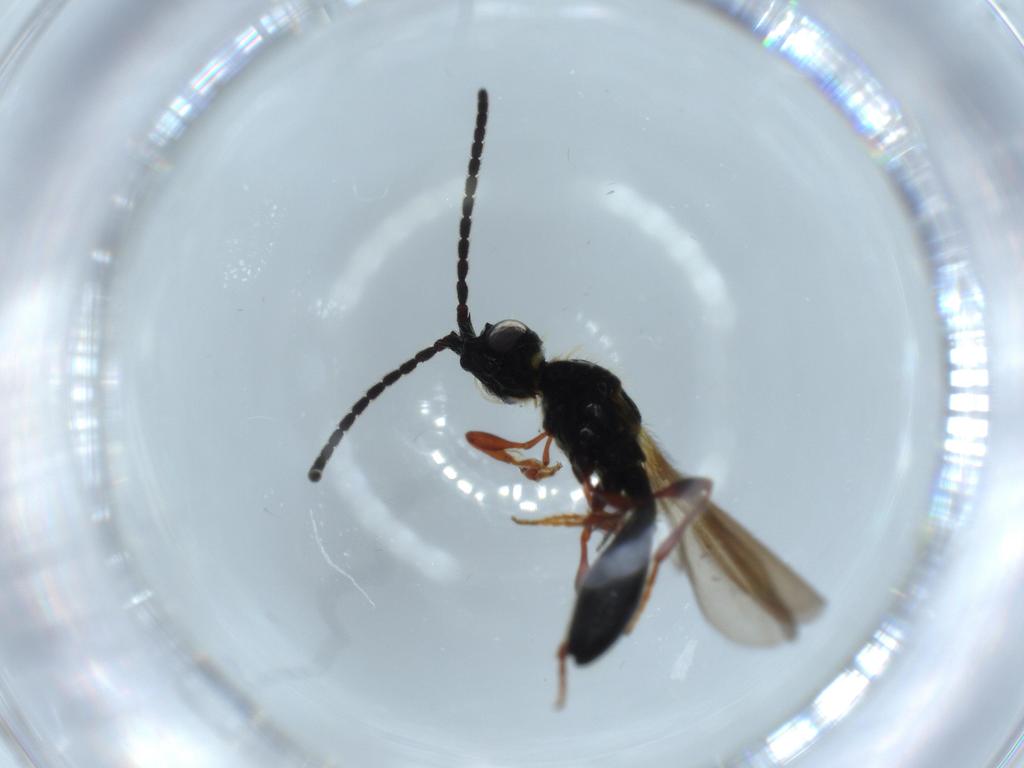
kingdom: Animalia
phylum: Arthropoda
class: Insecta
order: Hymenoptera
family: Diapriidae
